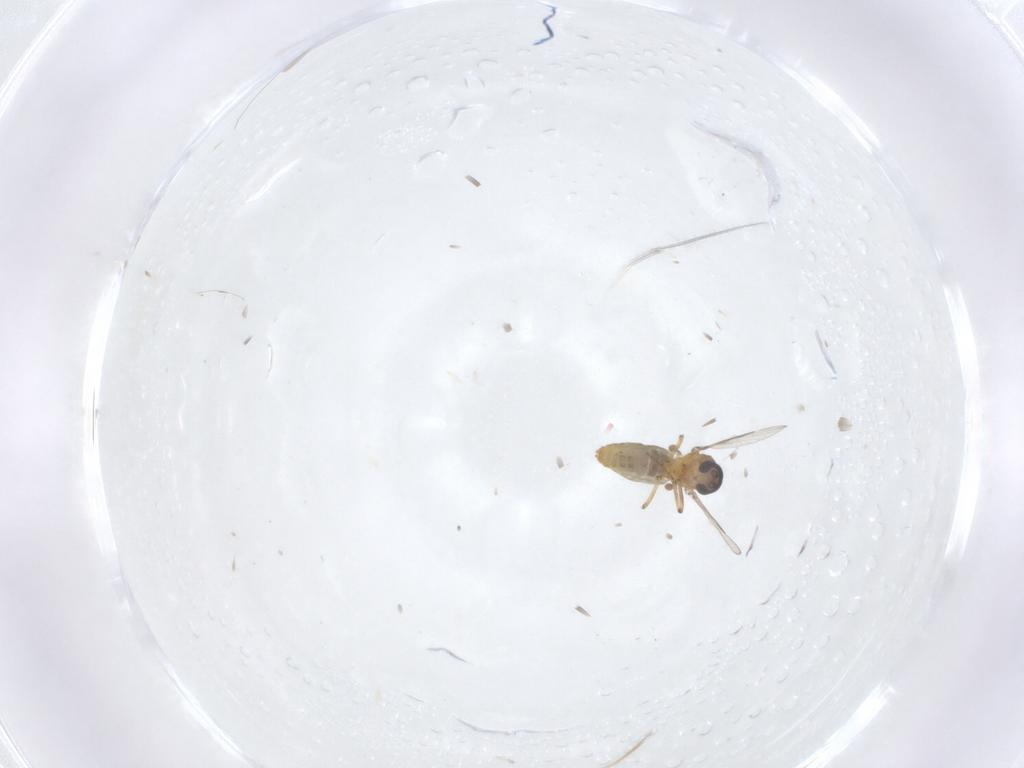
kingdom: Animalia
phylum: Arthropoda
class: Insecta
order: Diptera
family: Ceratopogonidae
